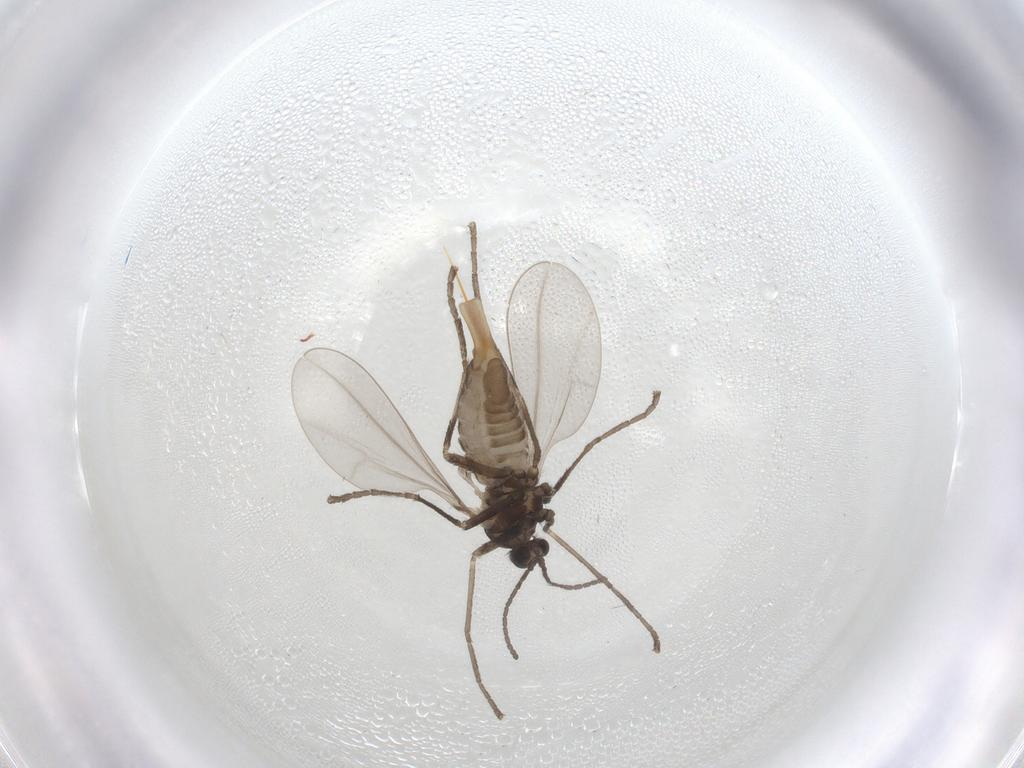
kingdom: Animalia
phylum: Arthropoda
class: Insecta
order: Diptera
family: Cecidomyiidae
